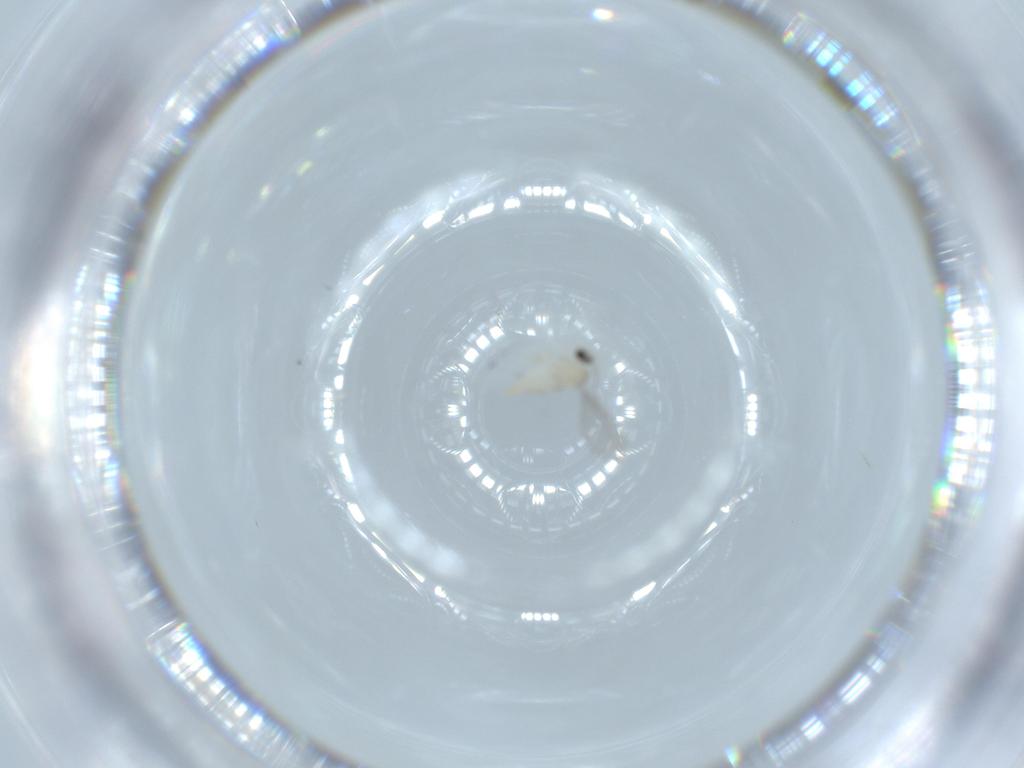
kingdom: Animalia
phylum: Arthropoda
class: Insecta
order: Diptera
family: Cecidomyiidae
